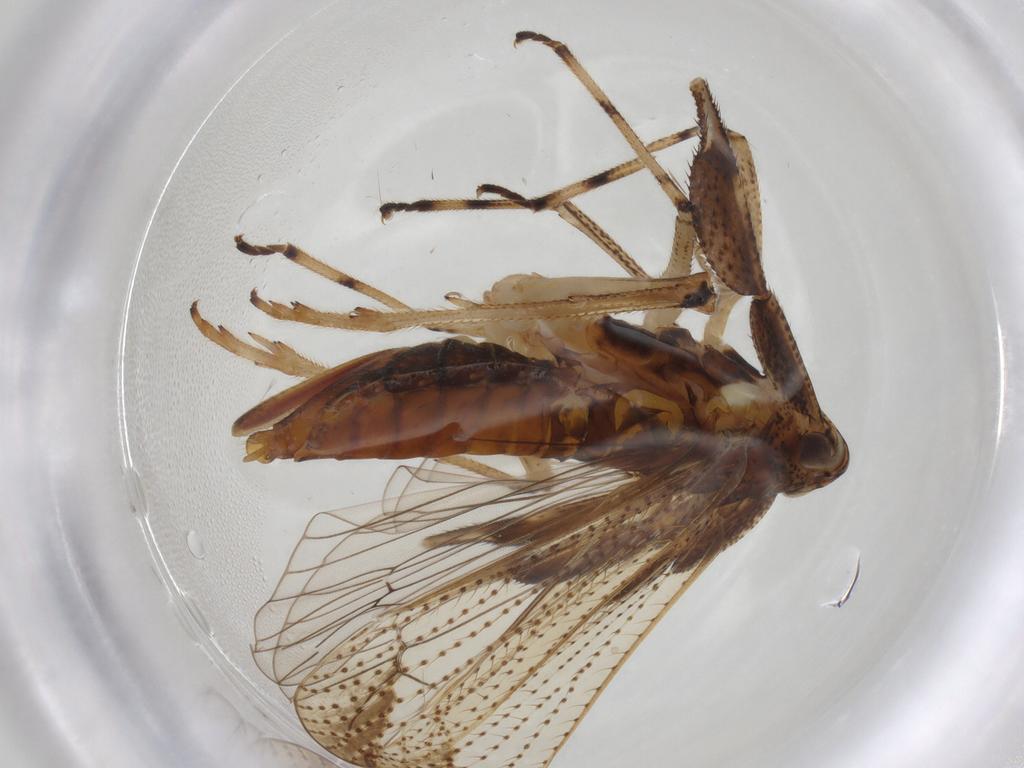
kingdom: Animalia
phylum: Arthropoda
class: Insecta
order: Hemiptera
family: Delphacidae
